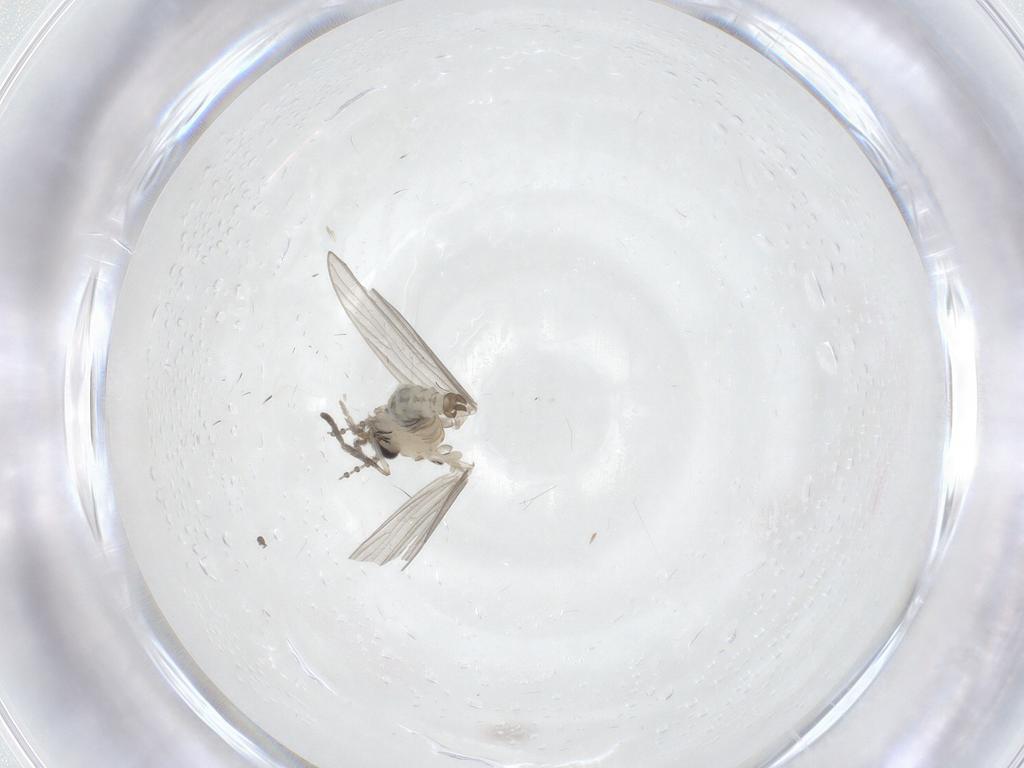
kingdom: Animalia
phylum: Arthropoda
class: Insecta
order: Diptera
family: Psychodidae
